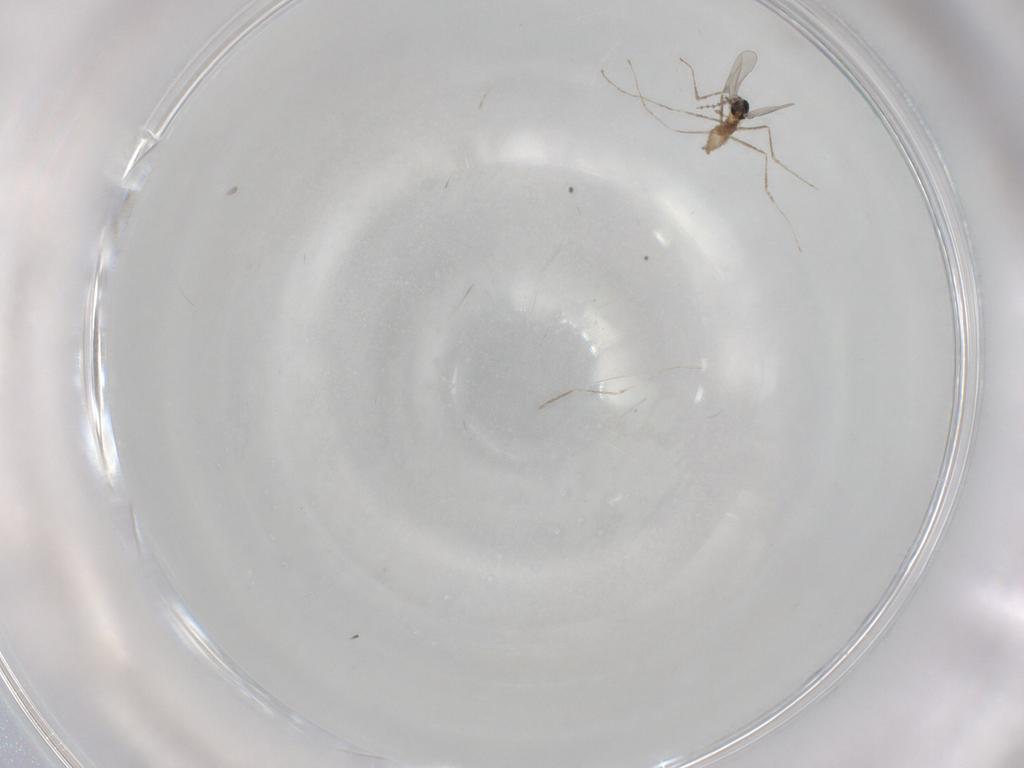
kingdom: Animalia
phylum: Arthropoda
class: Insecta
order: Diptera
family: Cecidomyiidae
